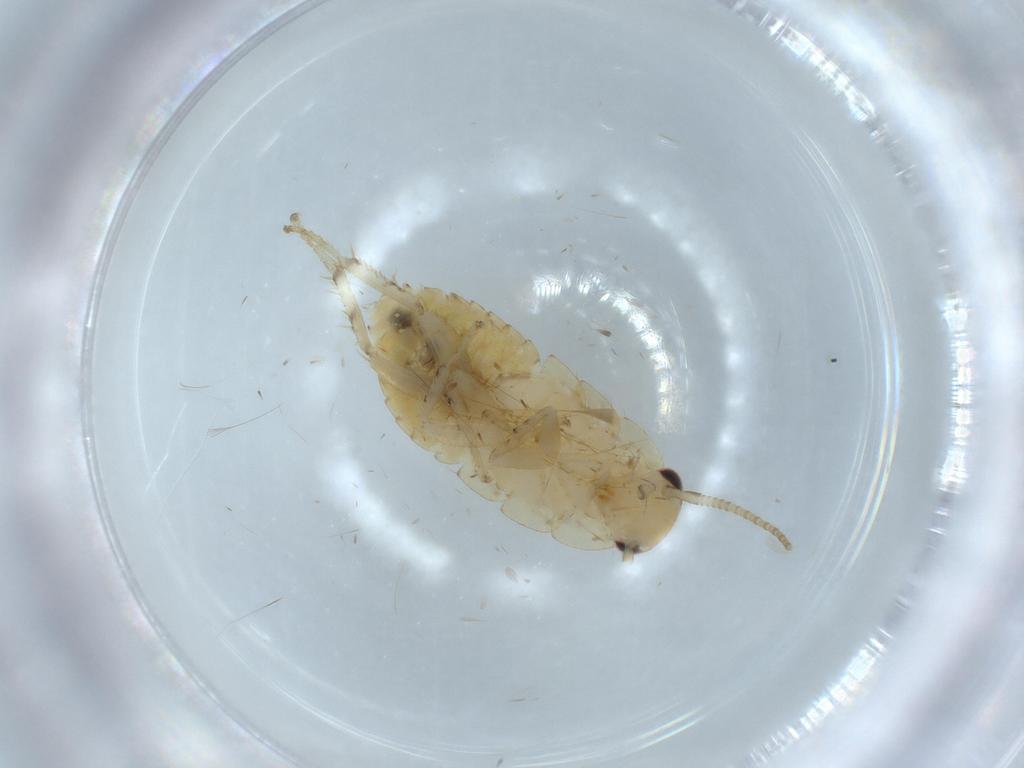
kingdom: Animalia
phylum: Arthropoda
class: Insecta
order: Blattodea
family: Ectobiidae
